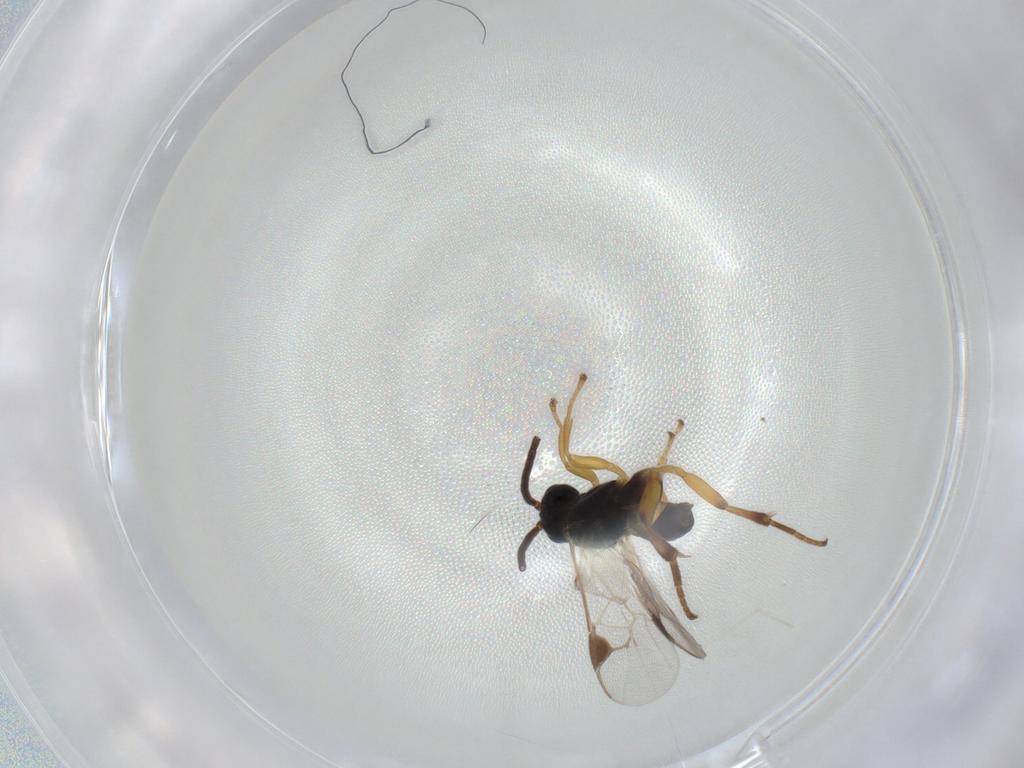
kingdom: Animalia
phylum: Arthropoda
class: Insecta
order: Hymenoptera
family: Braconidae
